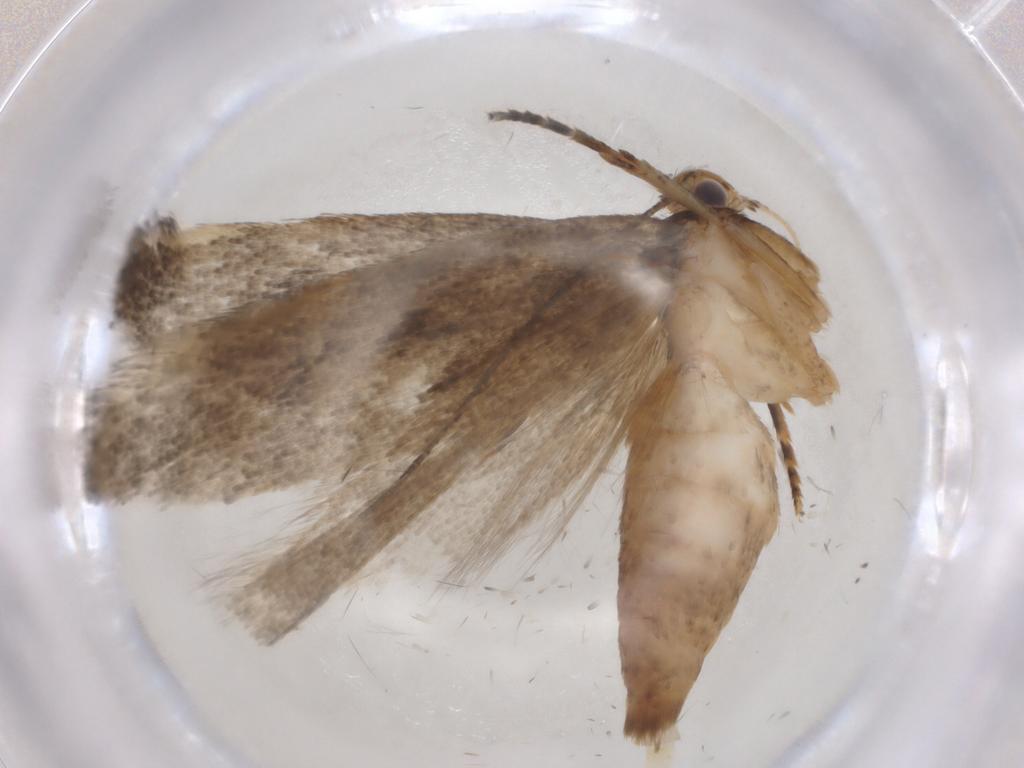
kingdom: Animalia
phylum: Arthropoda
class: Insecta
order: Lepidoptera
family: Gelechiidae
